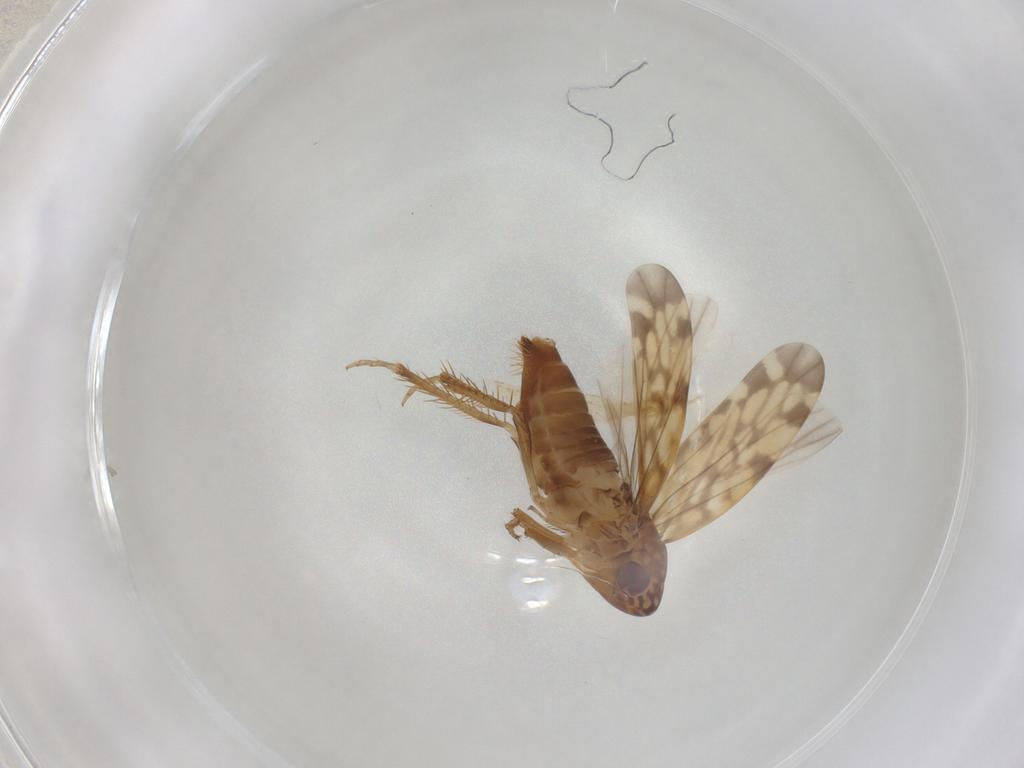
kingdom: Animalia
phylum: Arthropoda
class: Insecta
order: Hemiptera
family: Cicadellidae
